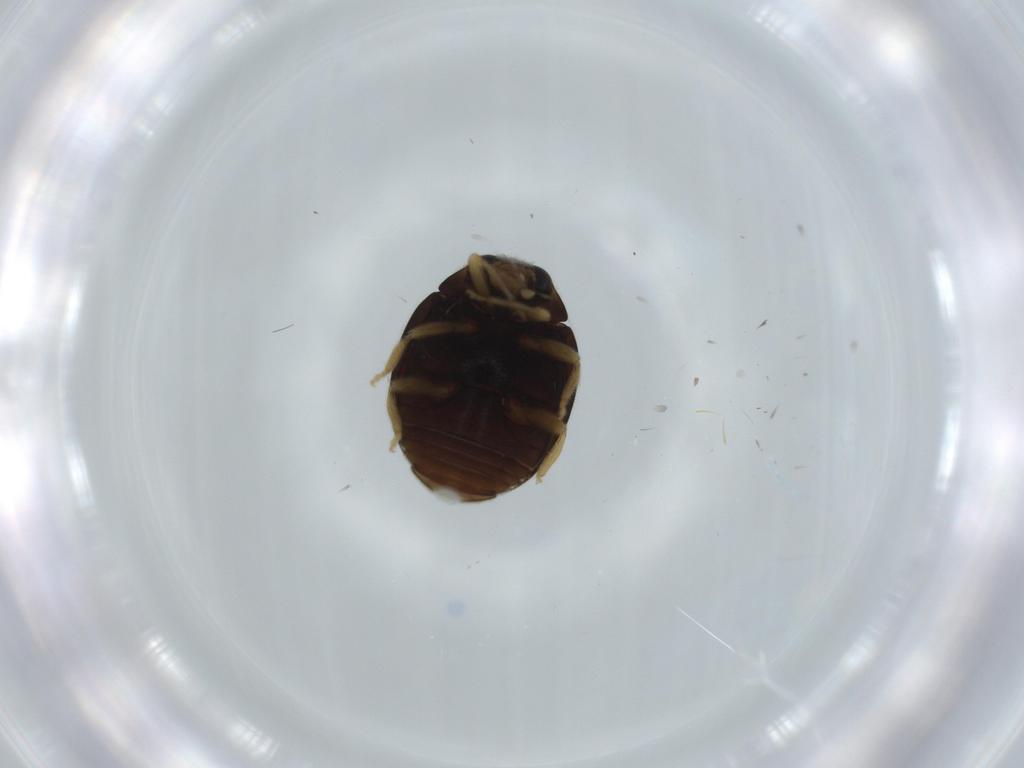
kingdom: Animalia
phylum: Arthropoda
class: Insecta
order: Coleoptera
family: Coccinellidae
